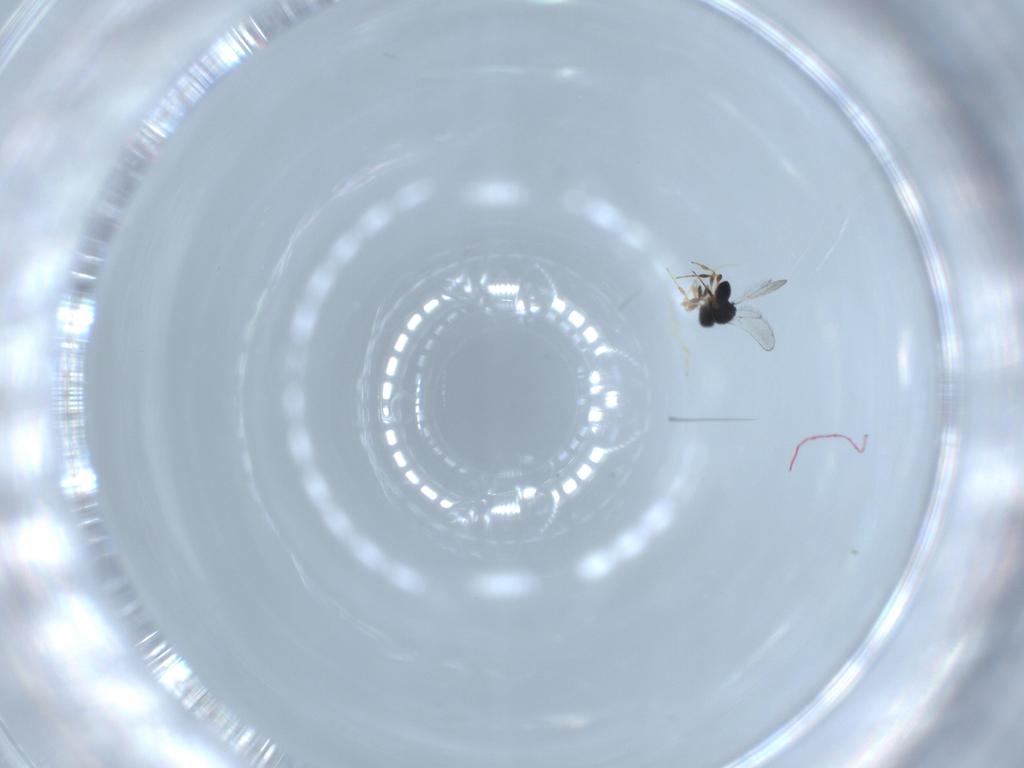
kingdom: Animalia
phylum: Arthropoda
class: Insecta
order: Hymenoptera
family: Platygastridae
